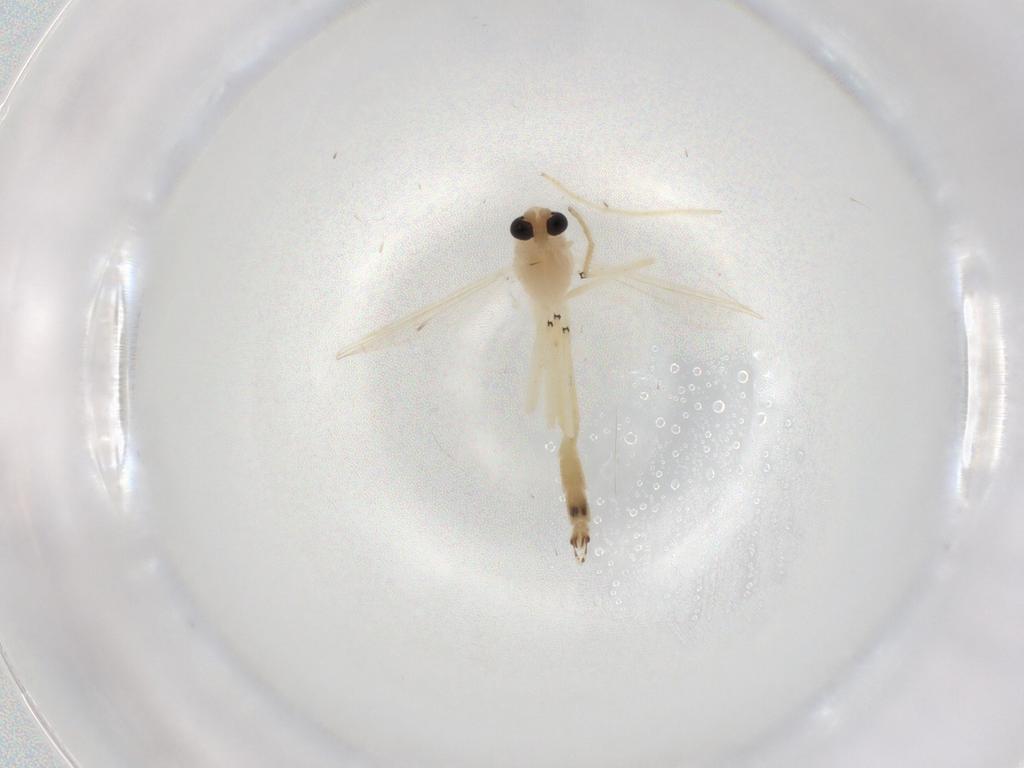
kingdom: Animalia
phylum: Arthropoda
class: Insecta
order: Diptera
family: Chironomidae
